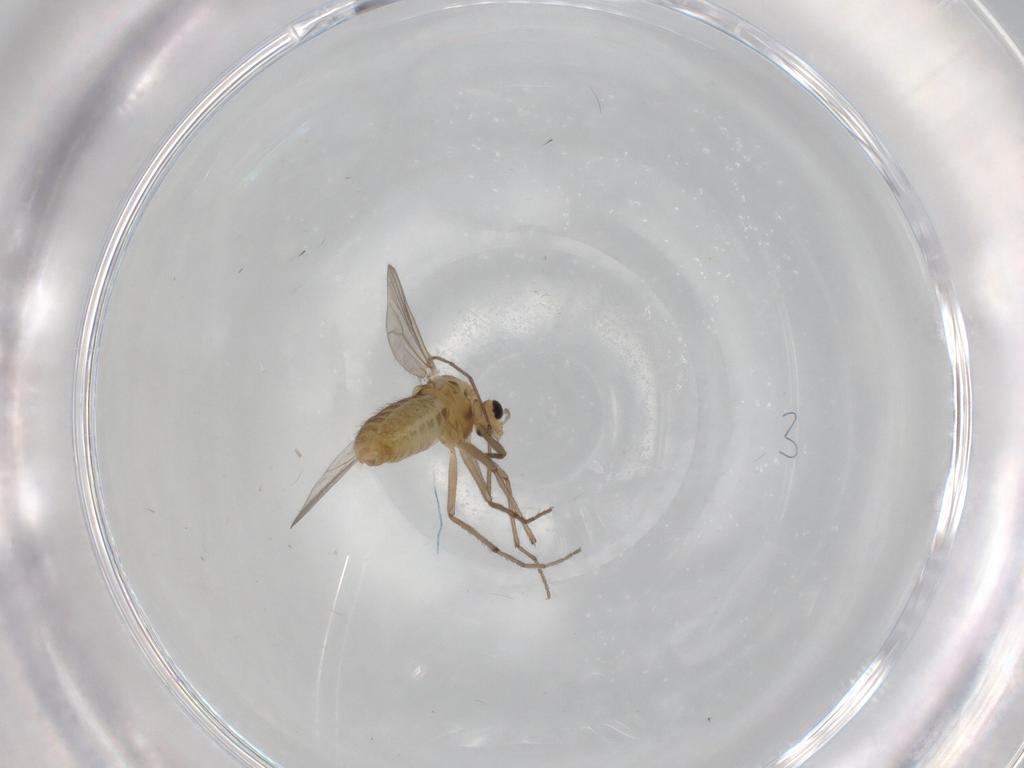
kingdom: Animalia
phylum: Arthropoda
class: Insecta
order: Diptera
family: Chironomidae
